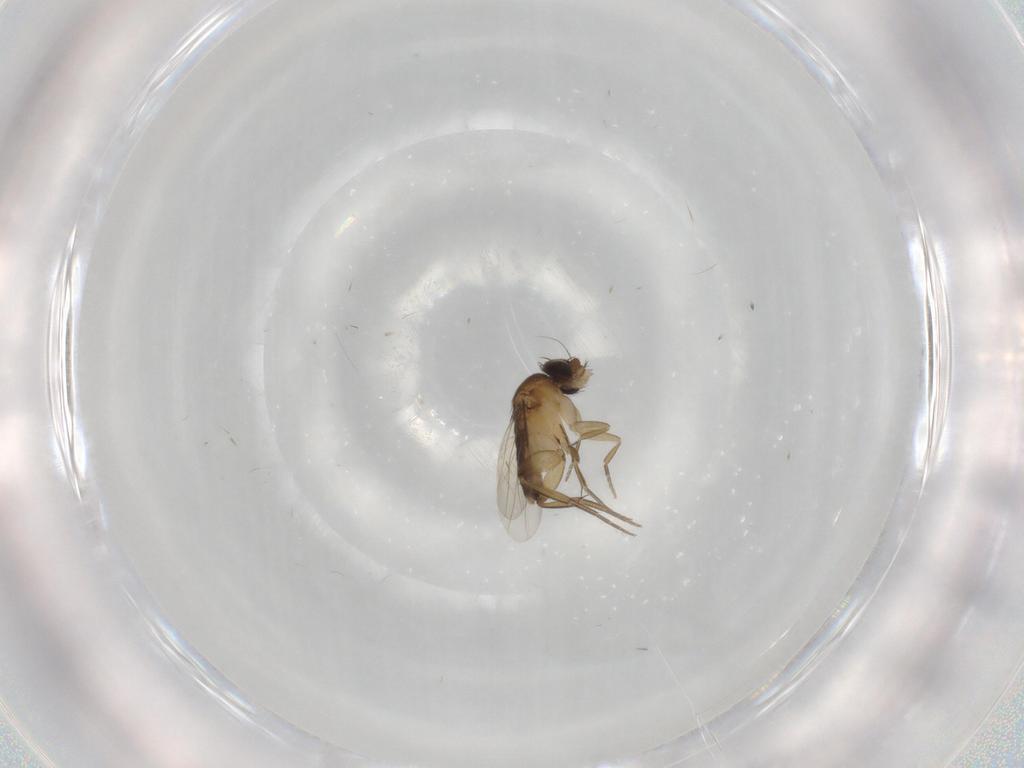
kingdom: Animalia
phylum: Arthropoda
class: Insecta
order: Diptera
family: Phoridae
